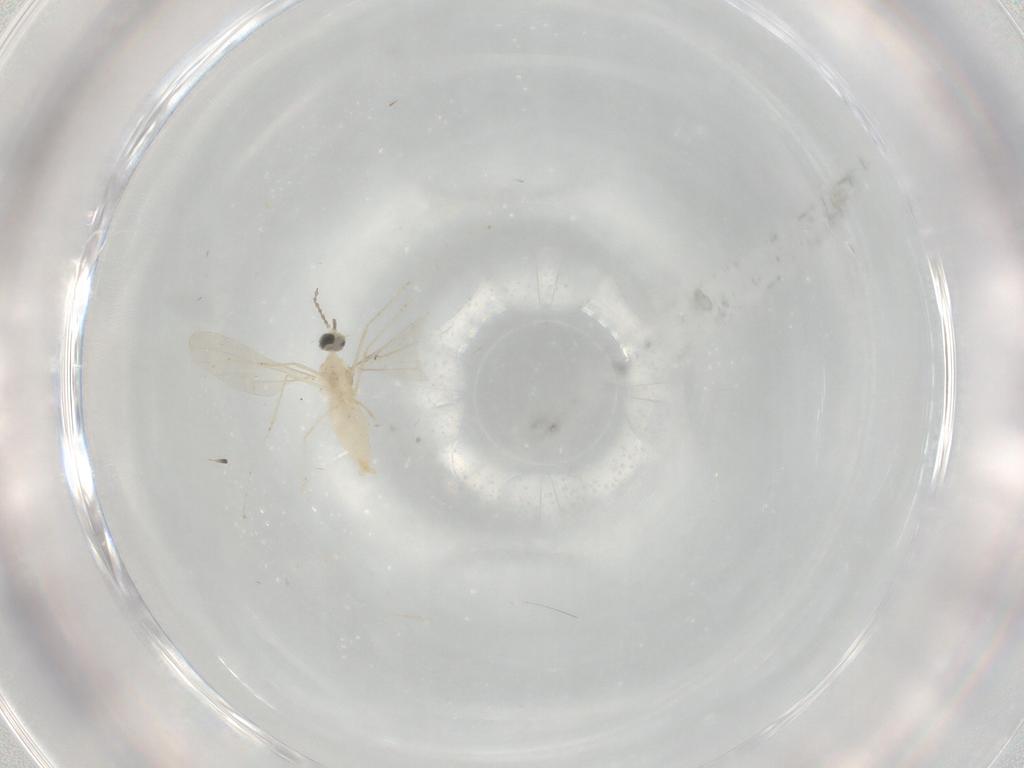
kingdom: Animalia
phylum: Arthropoda
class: Insecta
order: Diptera
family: Cecidomyiidae
